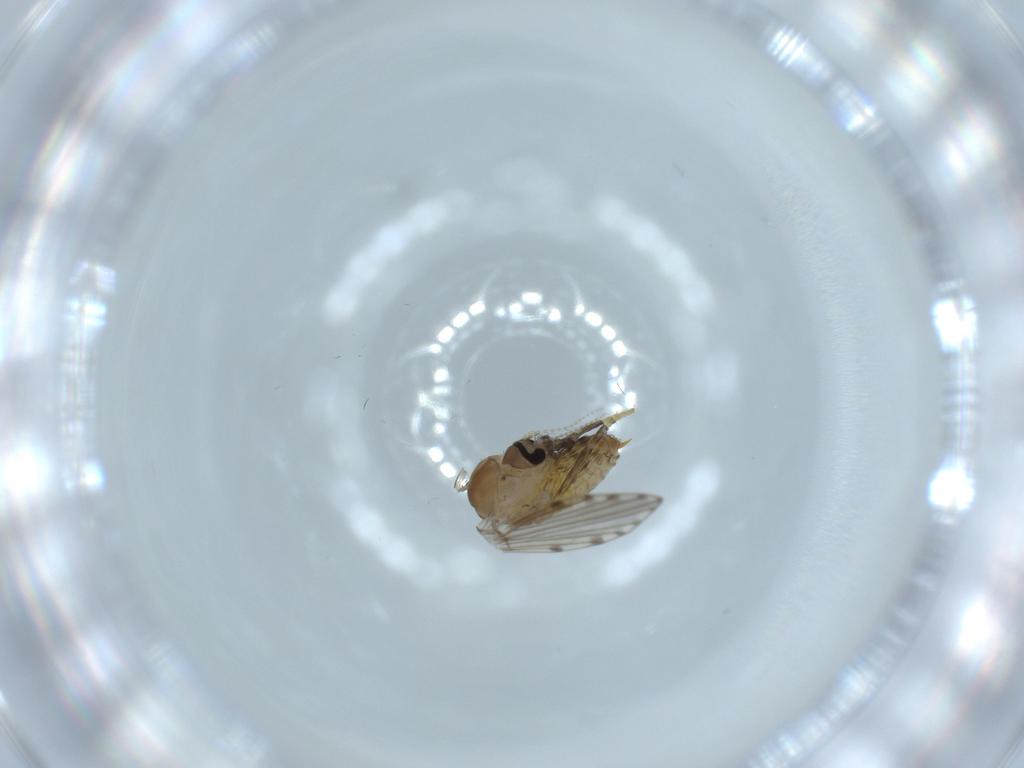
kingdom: Animalia
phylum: Arthropoda
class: Insecta
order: Diptera
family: Psychodidae
